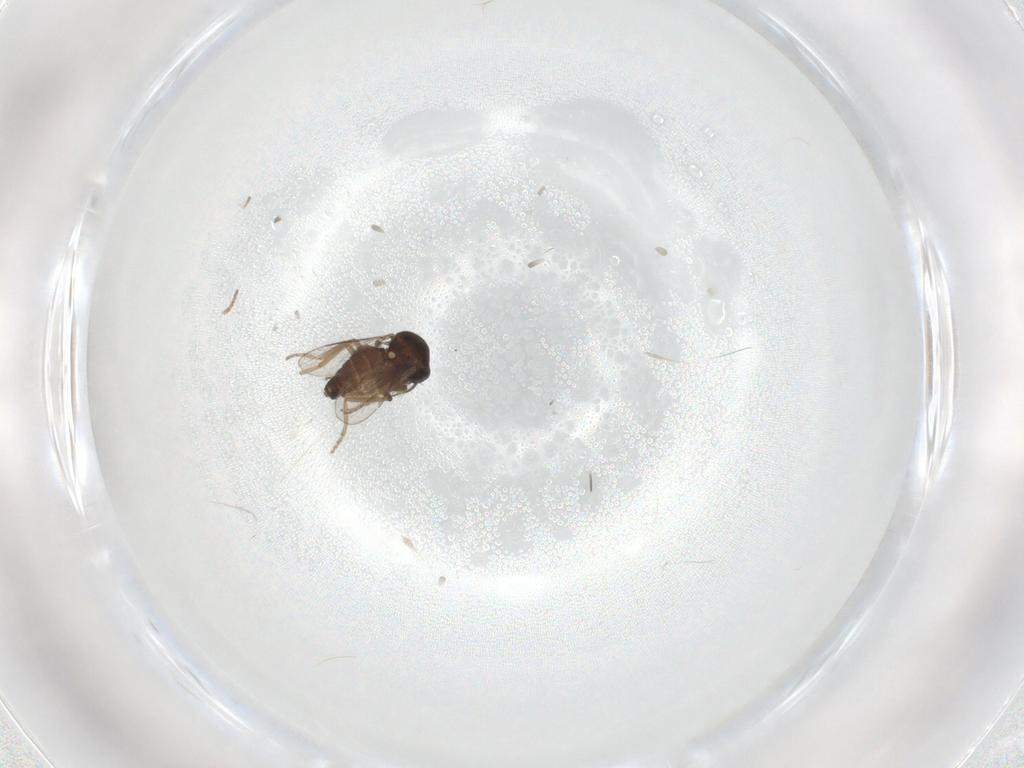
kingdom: Animalia
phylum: Arthropoda
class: Insecta
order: Diptera
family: Ceratopogonidae
